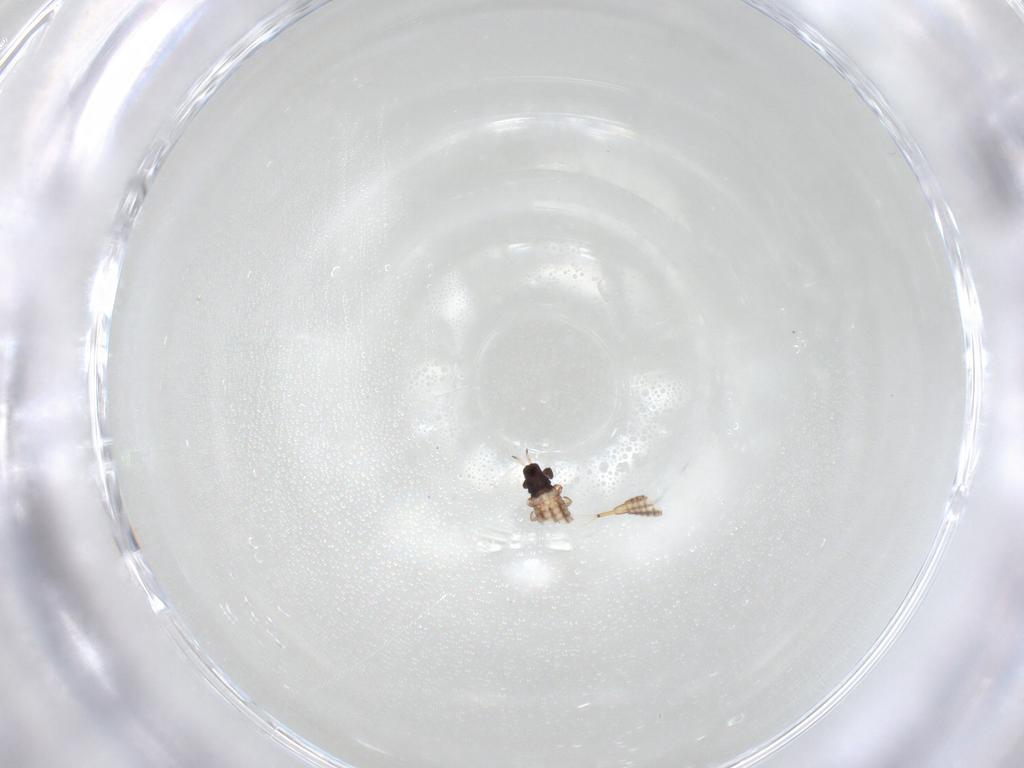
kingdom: Animalia
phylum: Arthropoda
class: Insecta
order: Thysanoptera
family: Phlaeothripidae
